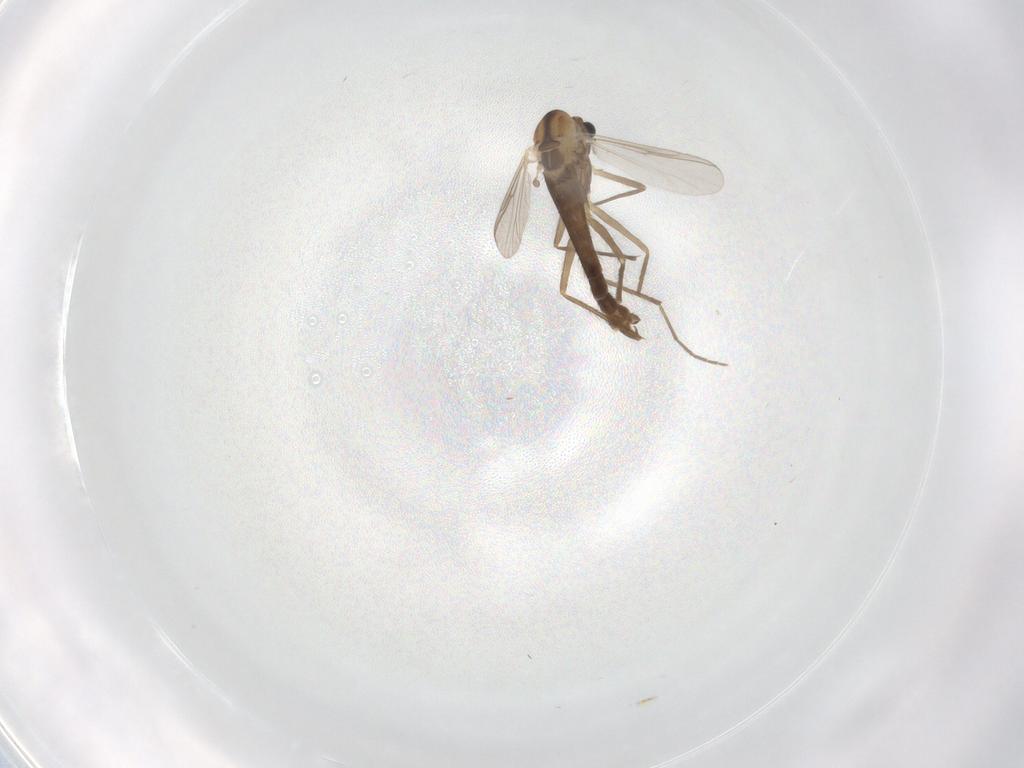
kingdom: Animalia
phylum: Arthropoda
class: Insecta
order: Diptera
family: Chironomidae
